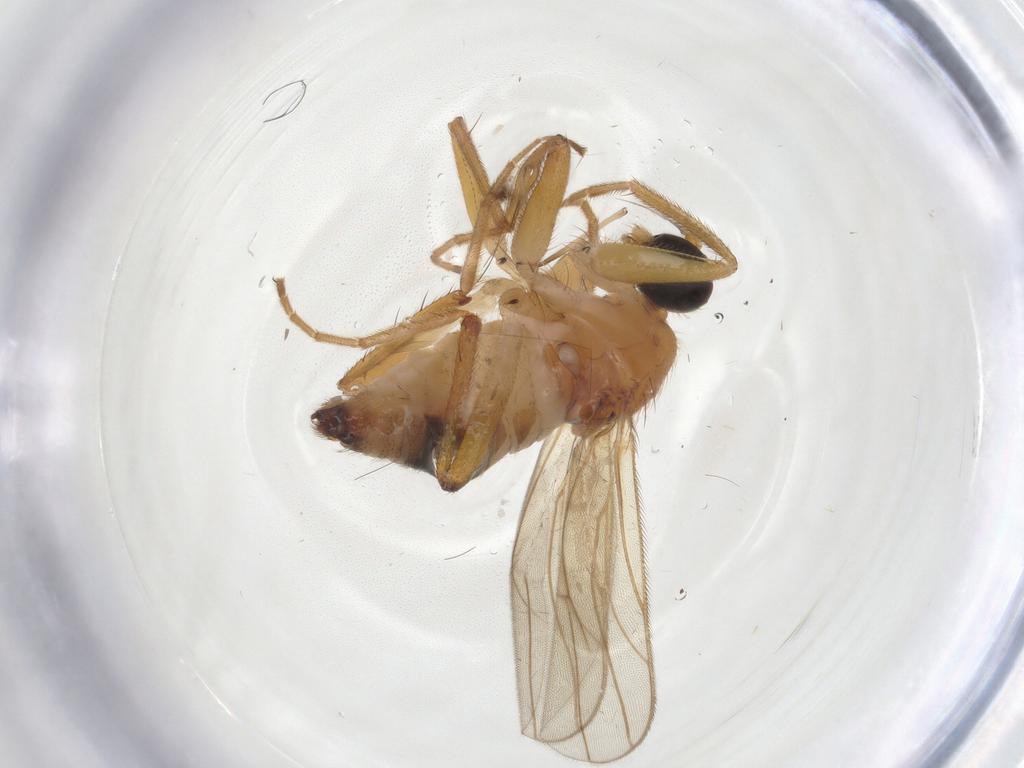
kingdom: Animalia
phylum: Arthropoda
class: Insecta
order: Diptera
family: Hybotidae
